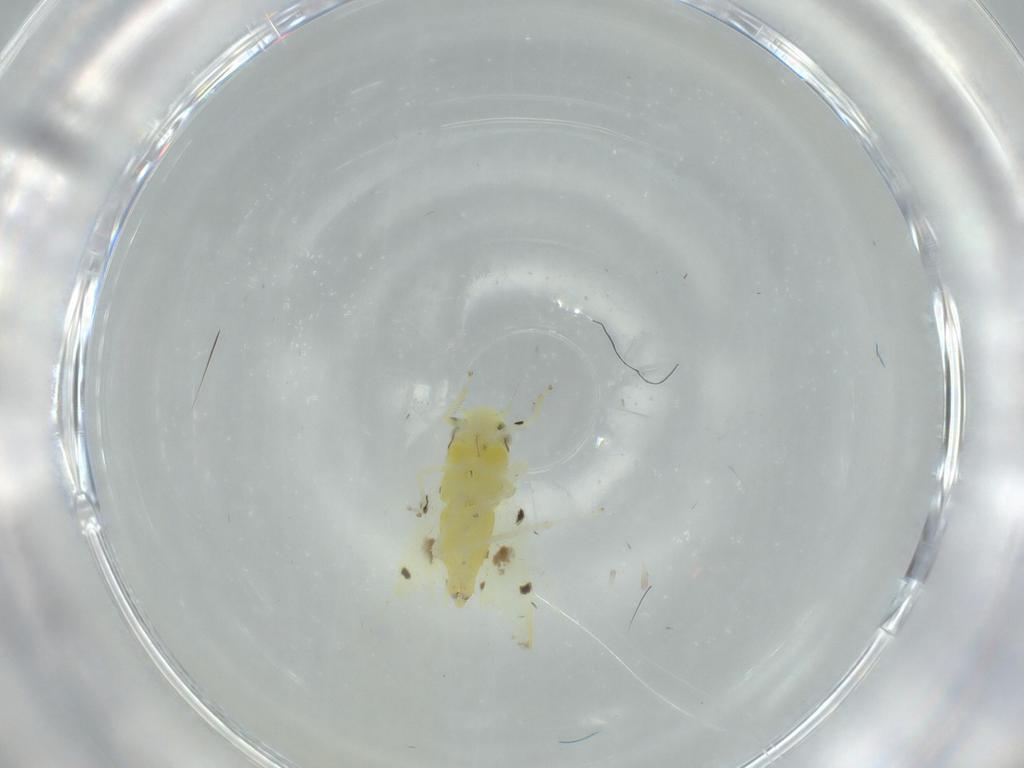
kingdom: Animalia
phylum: Arthropoda
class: Insecta
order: Hemiptera
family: Cicadellidae
